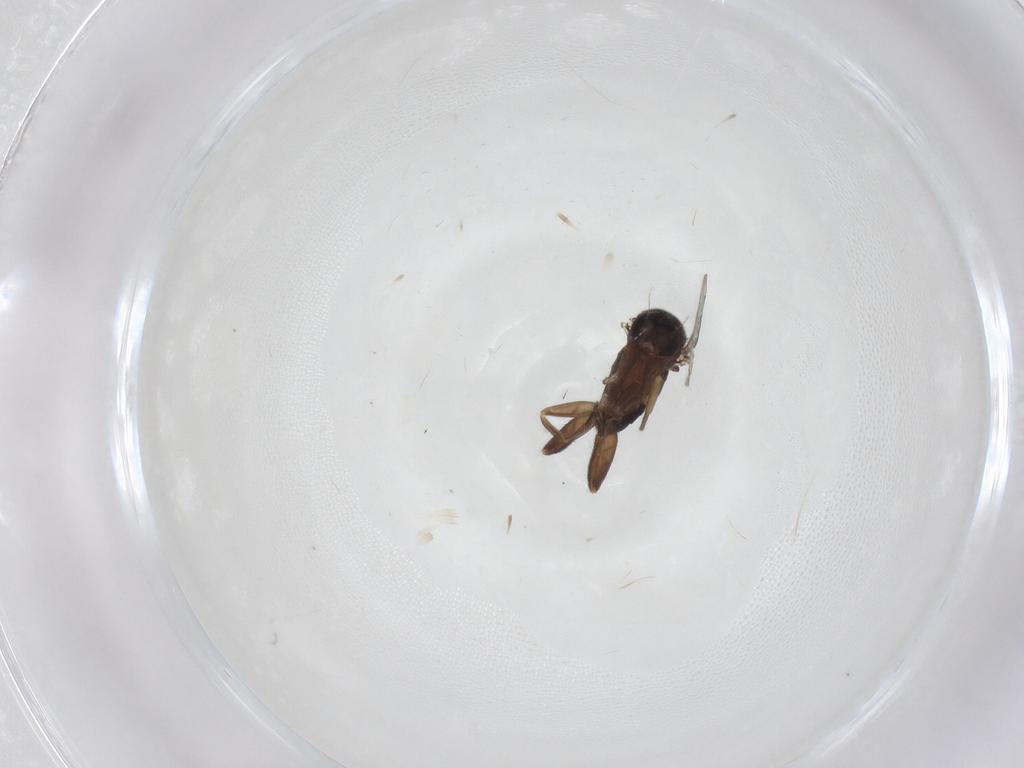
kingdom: Animalia
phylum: Arthropoda
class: Insecta
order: Diptera
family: Phoridae
